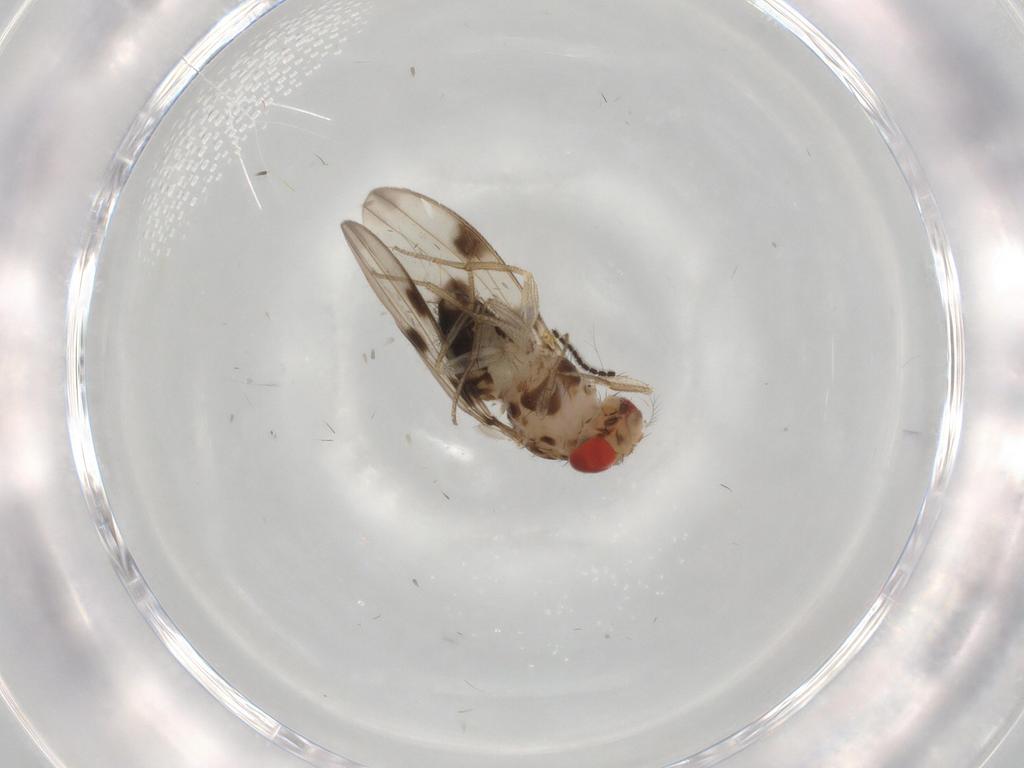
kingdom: Animalia
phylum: Arthropoda
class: Insecta
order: Diptera
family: Drosophilidae
